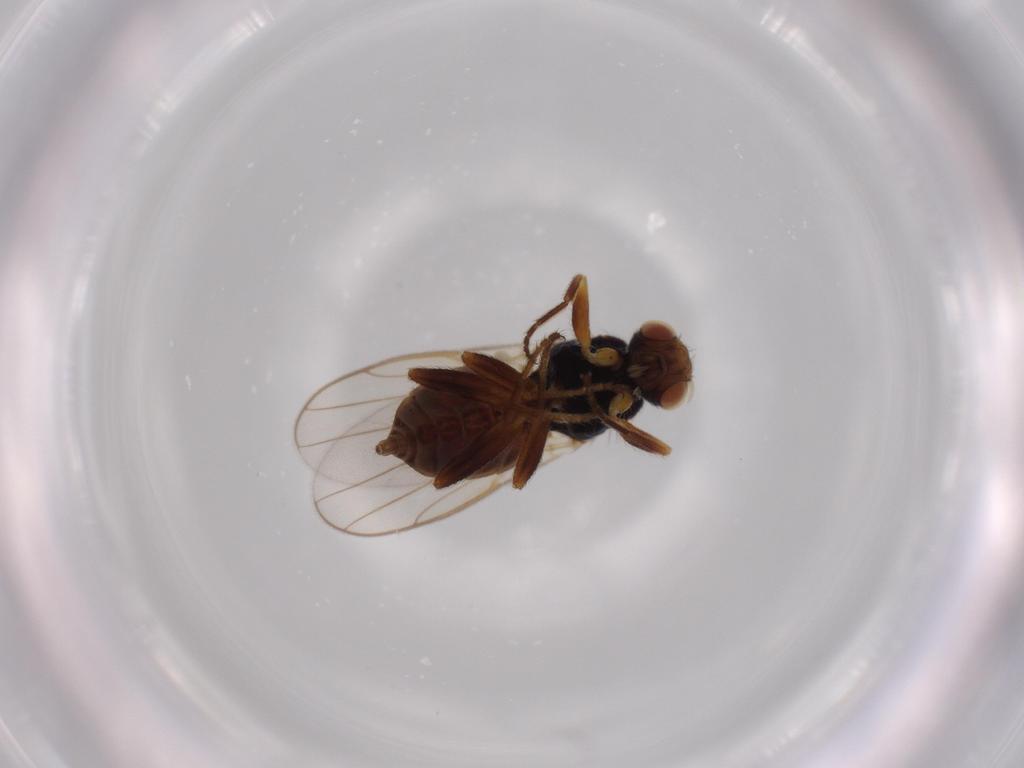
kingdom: Animalia
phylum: Arthropoda
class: Insecta
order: Diptera
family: Chloropidae
